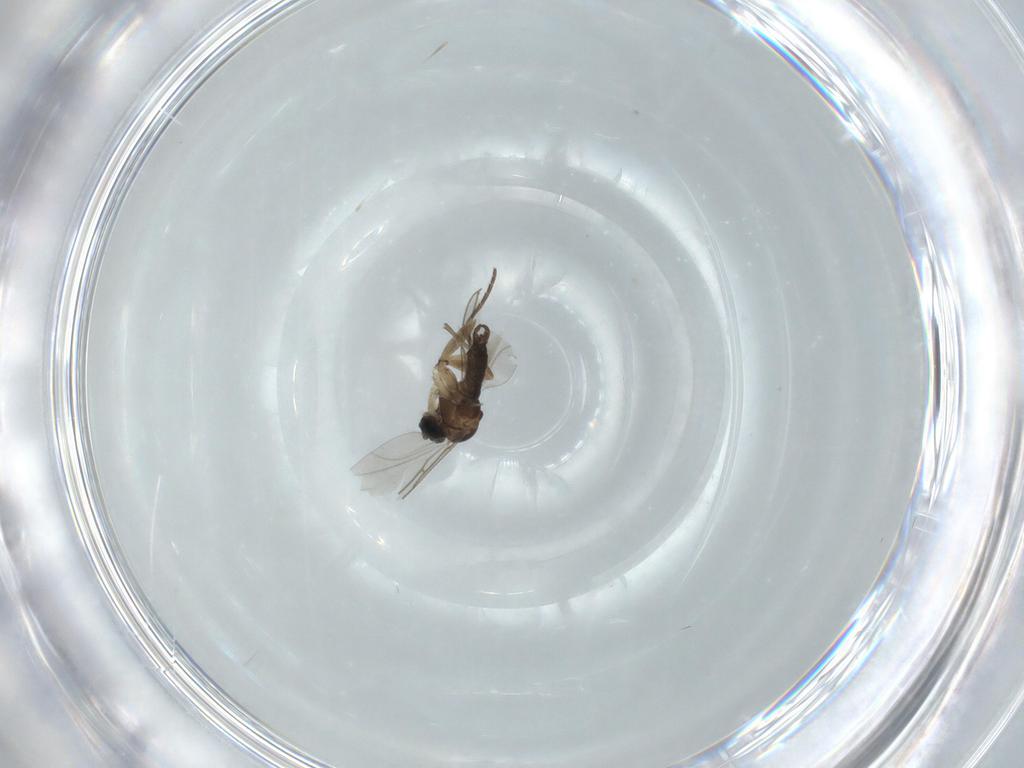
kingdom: Animalia
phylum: Arthropoda
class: Insecta
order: Diptera
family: Sciaridae
